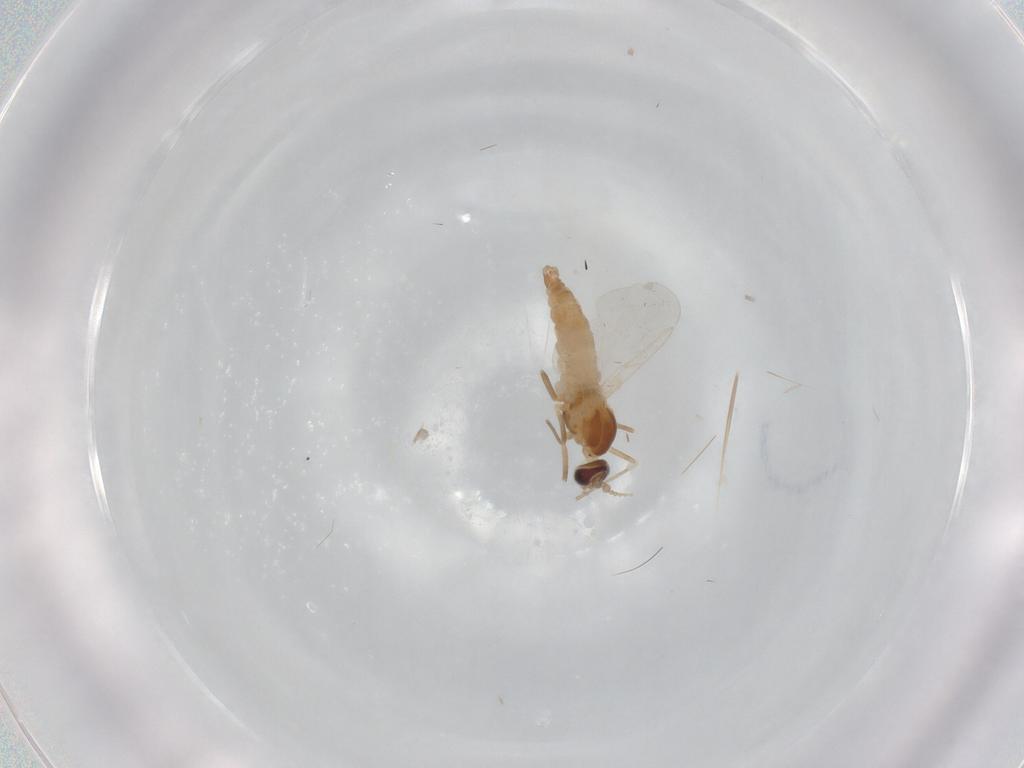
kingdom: Animalia
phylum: Arthropoda
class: Insecta
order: Diptera
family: Cecidomyiidae
